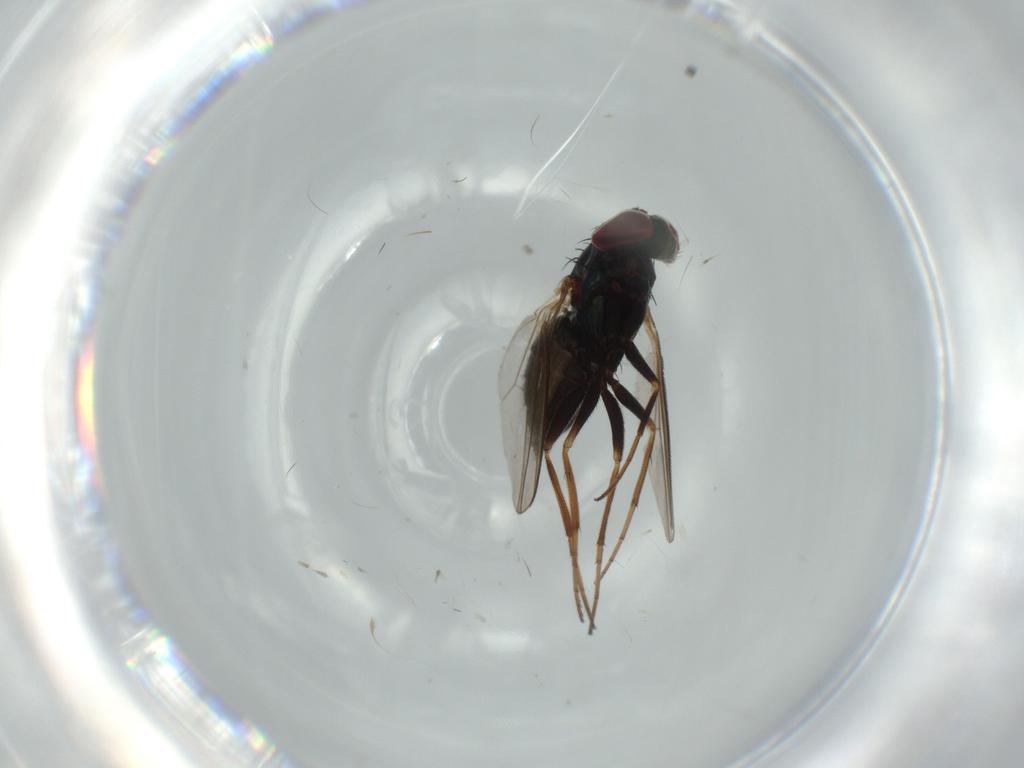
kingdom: Animalia
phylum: Arthropoda
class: Insecta
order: Diptera
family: Dolichopodidae
